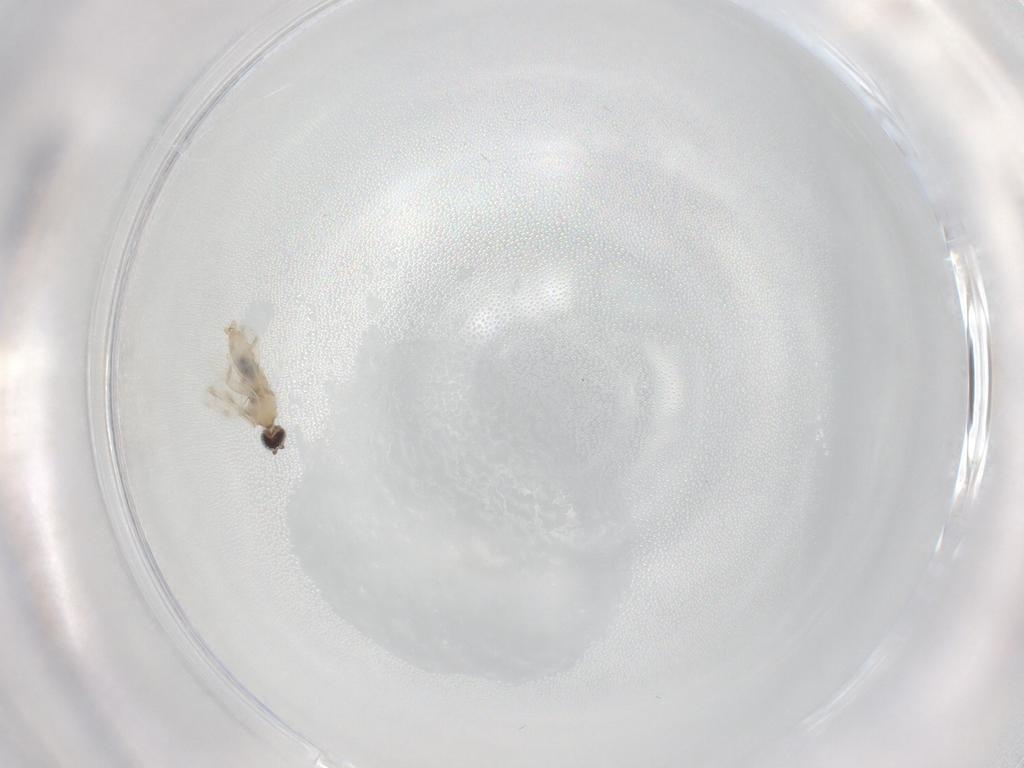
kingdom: Animalia
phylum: Arthropoda
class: Insecta
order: Diptera
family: Cecidomyiidae
